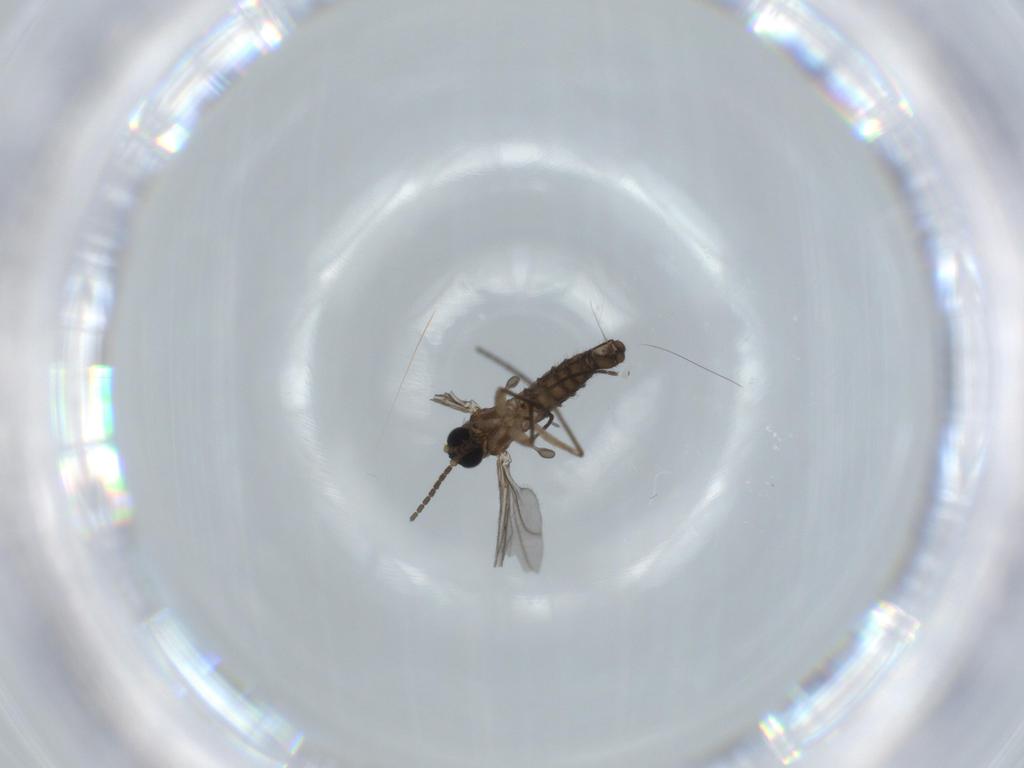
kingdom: Animalia
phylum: Arthropoda
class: Insecta
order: Diptera
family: Sciaridae
